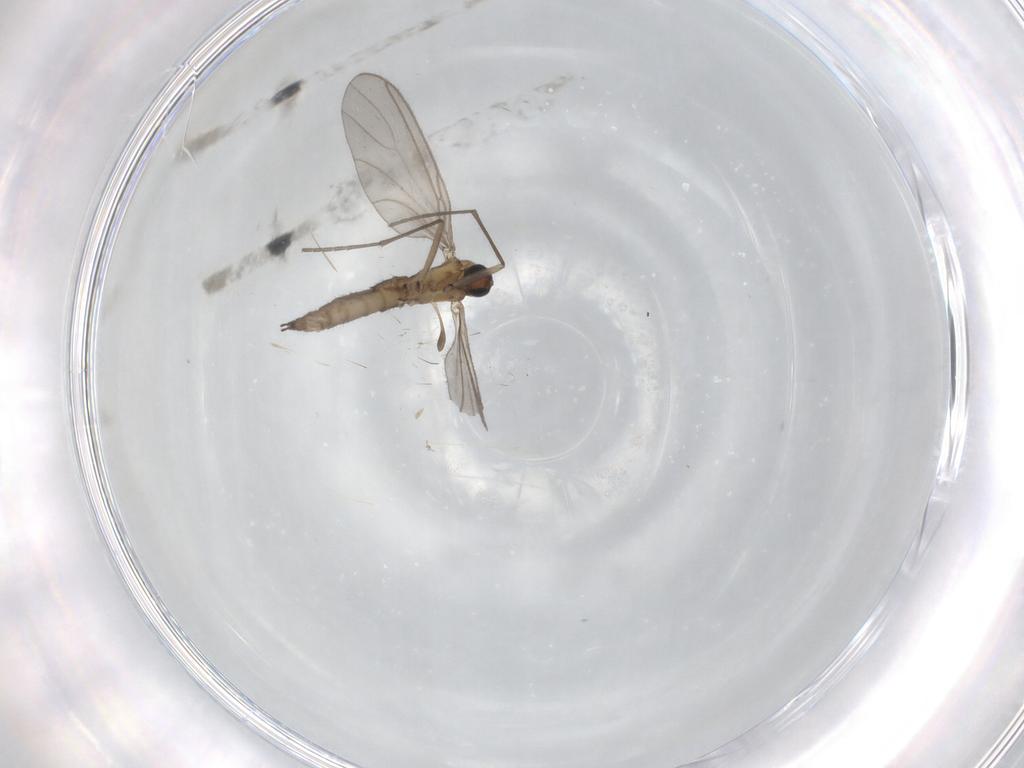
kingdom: Animalia
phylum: Arthropoda
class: Insecta
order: Diptera
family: Sciaridae
